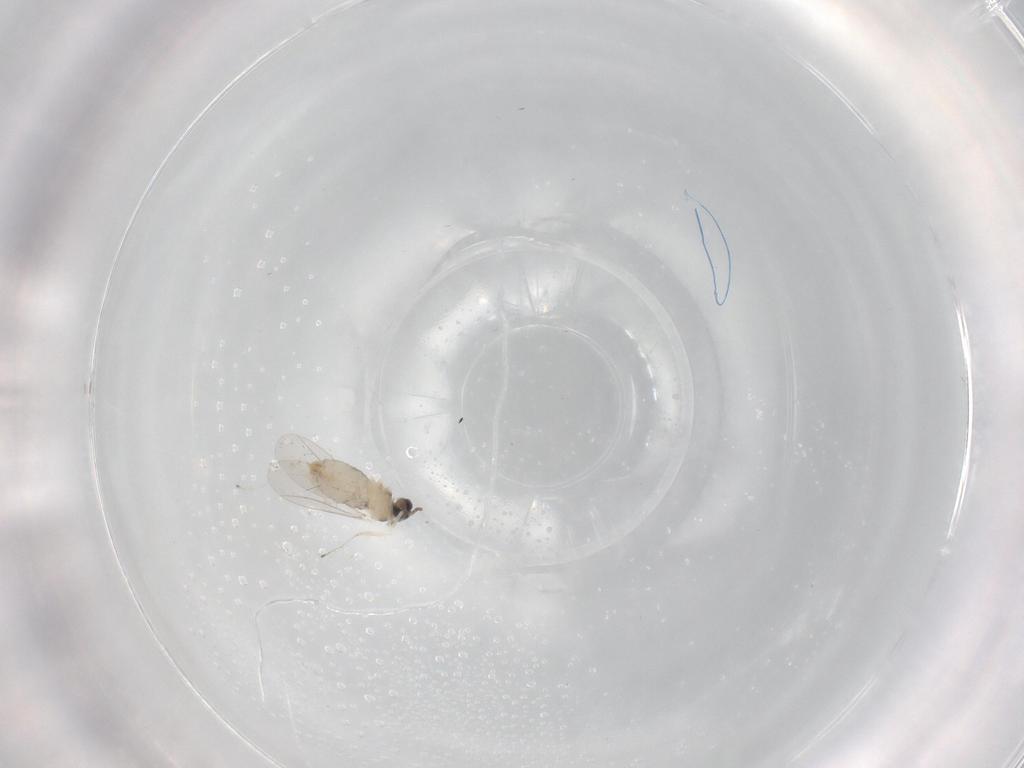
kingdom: Animalia
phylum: Arthropoda
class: Insecta
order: Diptera
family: Cecidomyiidae
